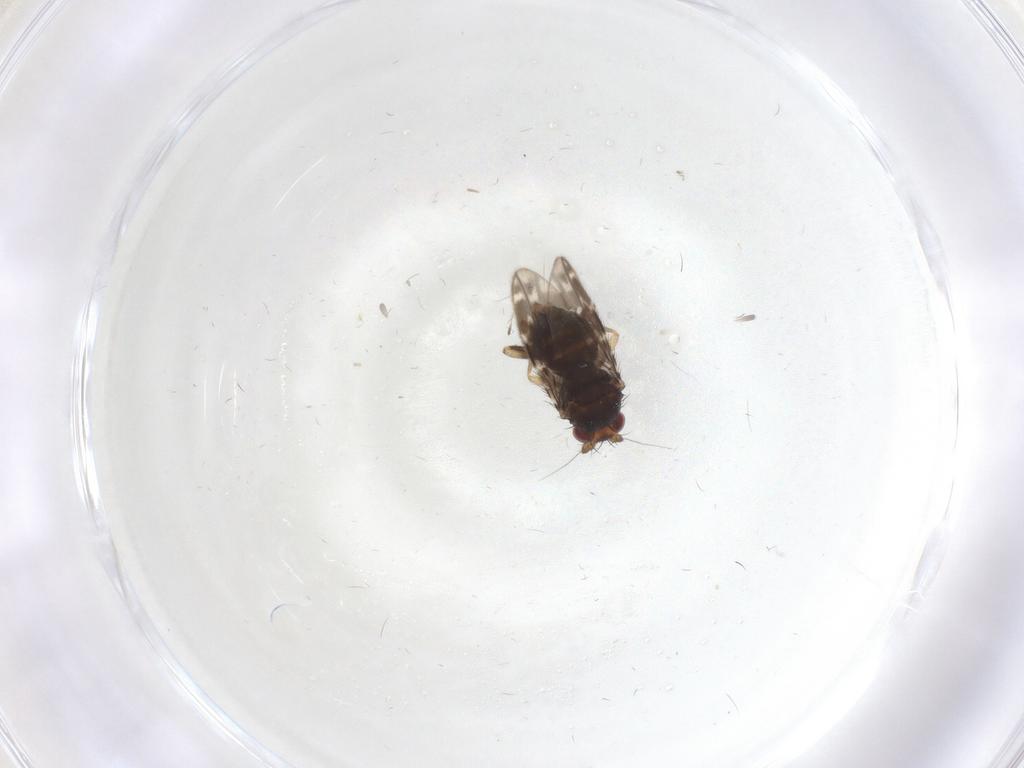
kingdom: Animalia
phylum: Arthropoda
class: Insecta
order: Diptera
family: Sphaeroceridae
